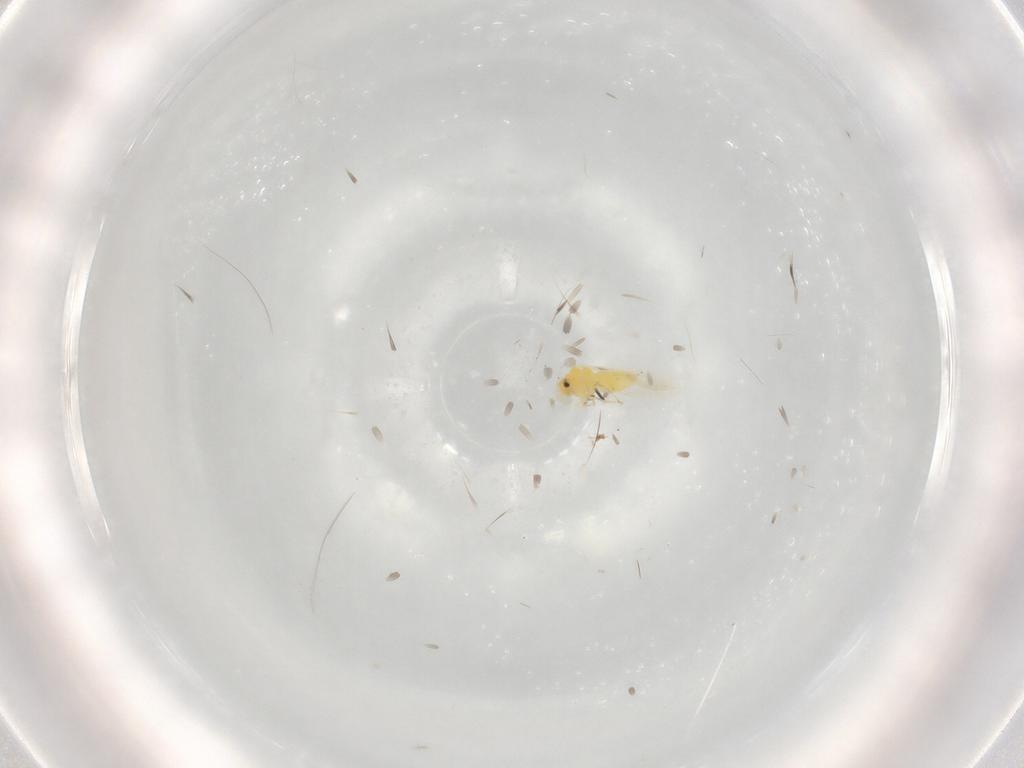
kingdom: Animalia
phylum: Arthropoda
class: Insecta
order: Hemiptera
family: Aleyrodidae
